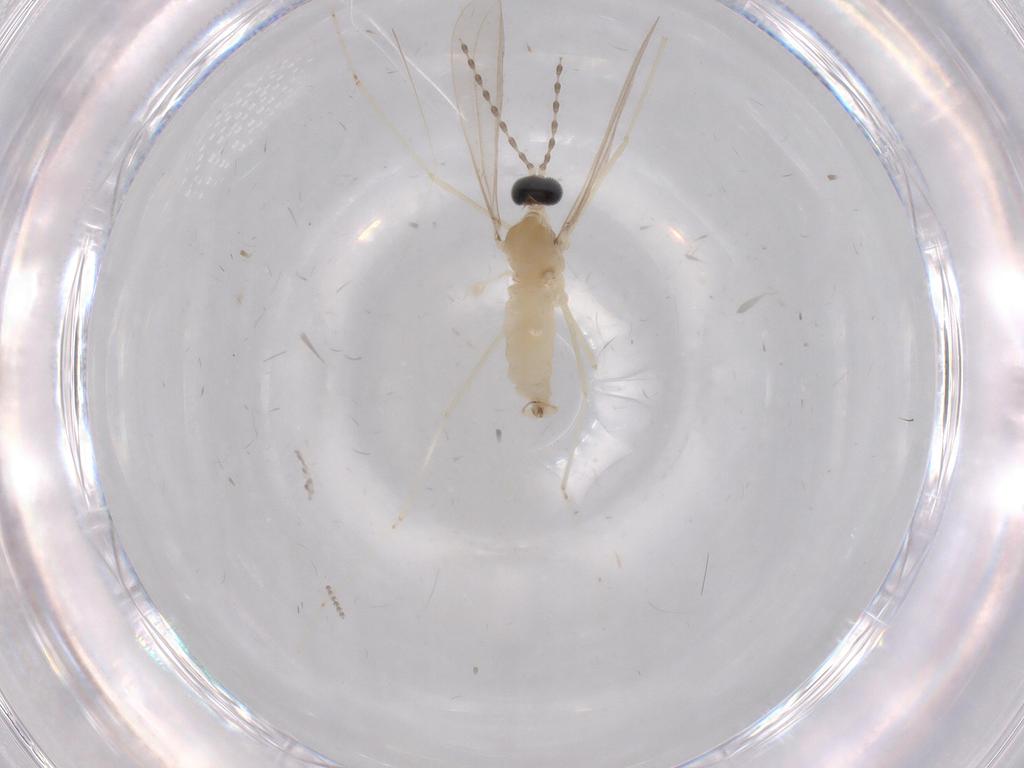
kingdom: Animalia
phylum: Arthropoda
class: Insecta
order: Diptera
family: Cecidomyiidae
